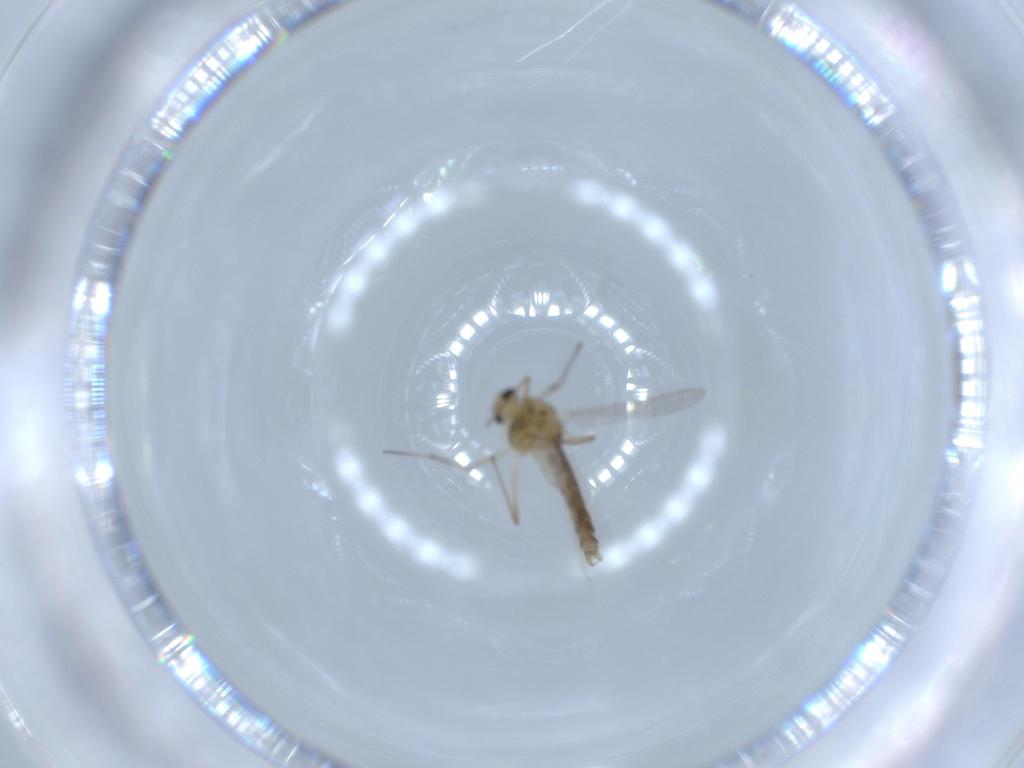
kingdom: Animalia
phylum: Arthropoda
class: Insecta
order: Diptera
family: Chironomidae
